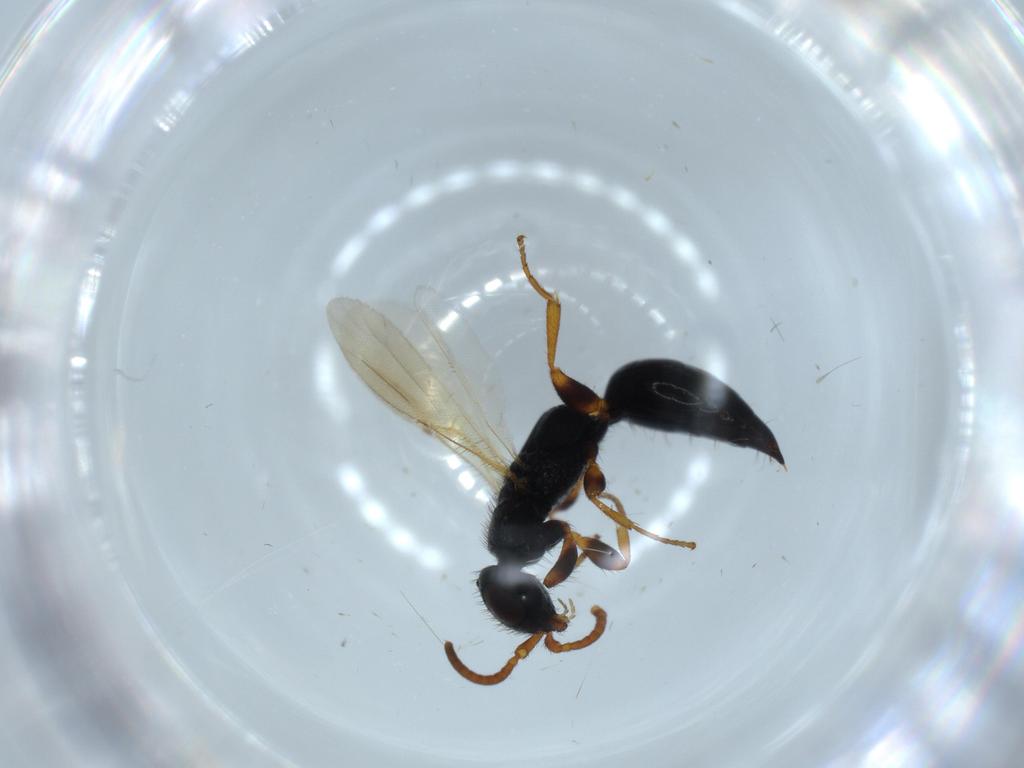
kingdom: Animalia
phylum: Arthropoda
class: Insecta
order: Hymenoptera
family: Bethylidae
